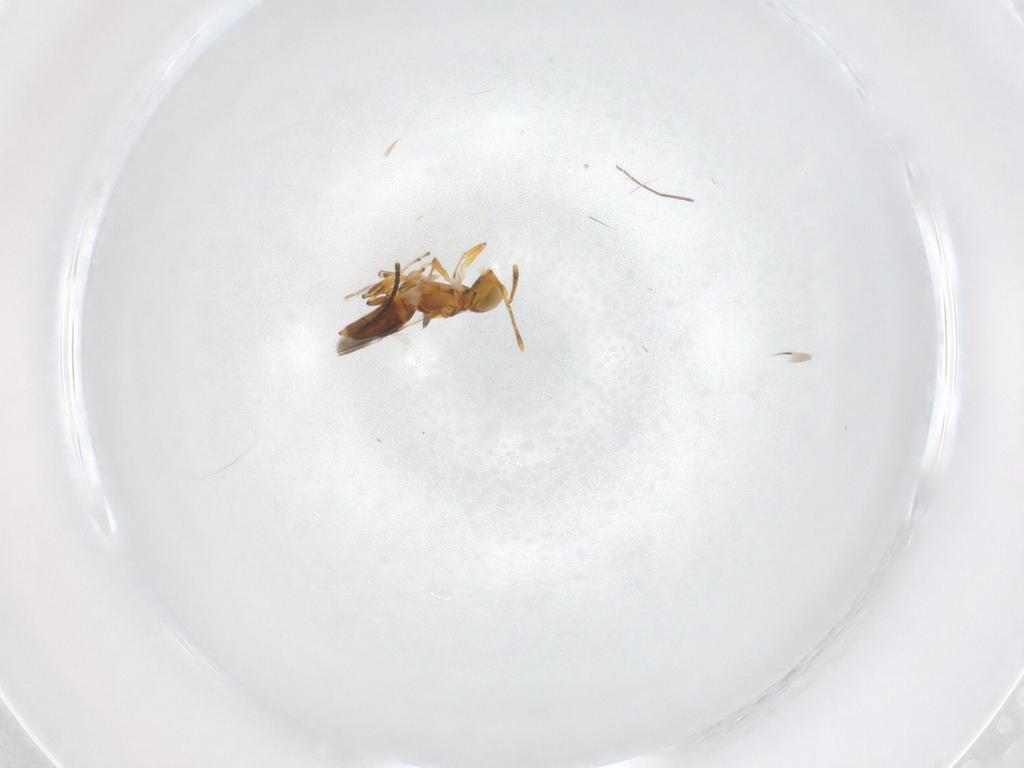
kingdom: Animalia
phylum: Arthropoda
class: Insecta
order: Hymenoptera
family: Encyrtidae
